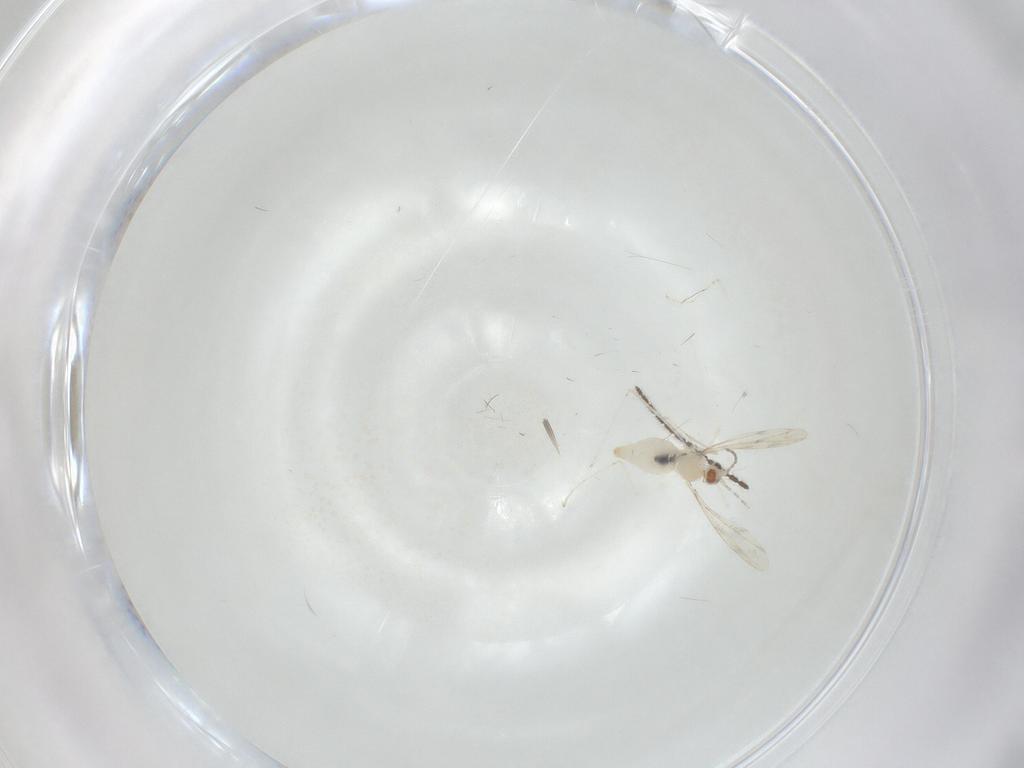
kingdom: Animalia
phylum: Arthropoda
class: Insecta
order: Diptera
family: Cecidomyiidae
